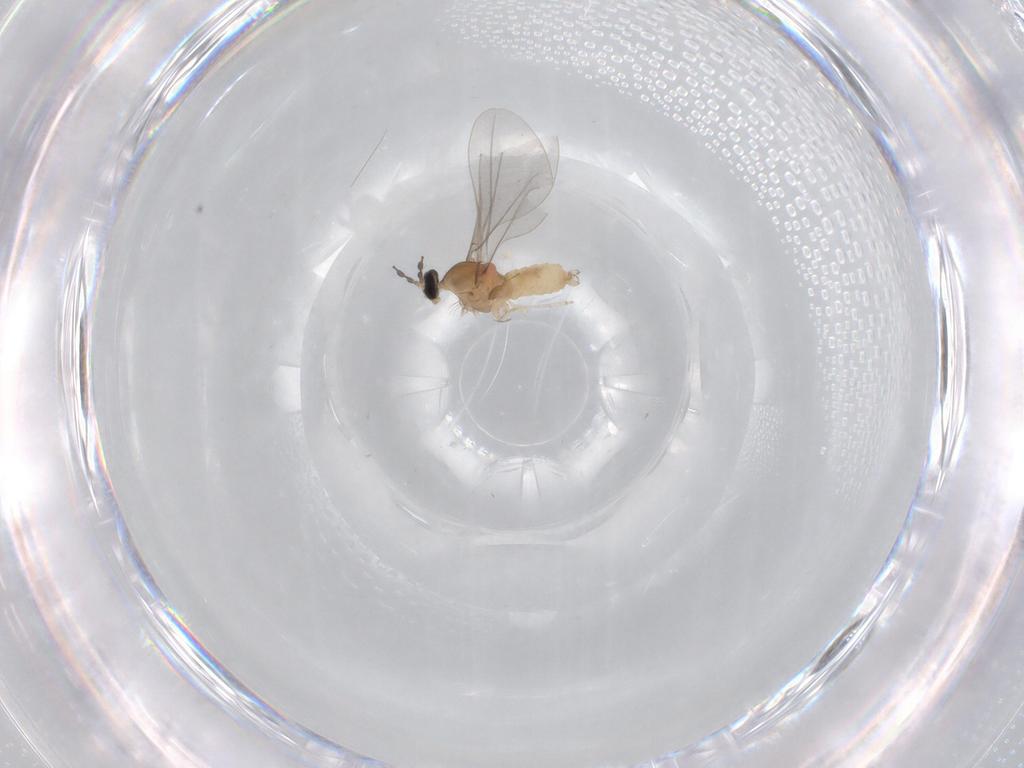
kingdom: Animalia
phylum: Arthropoda
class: Insecta
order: Diptera
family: Cecidomyiidae
